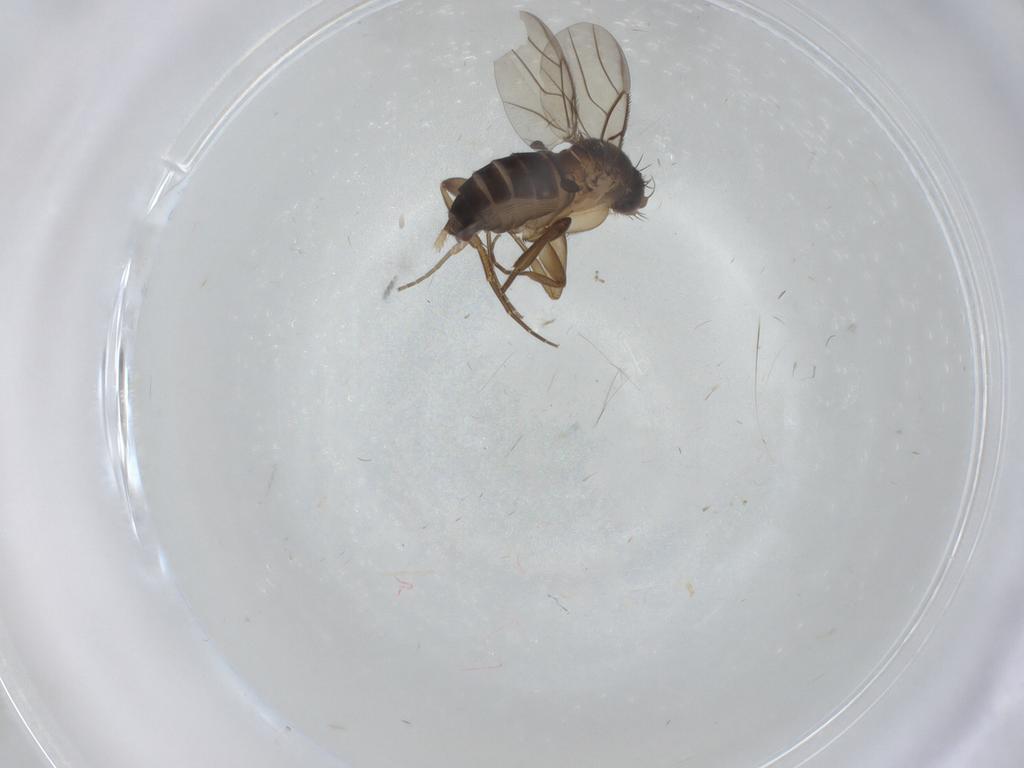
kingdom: Animalia
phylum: Arthropoda
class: Insecta
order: Diptera
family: Phoridae
